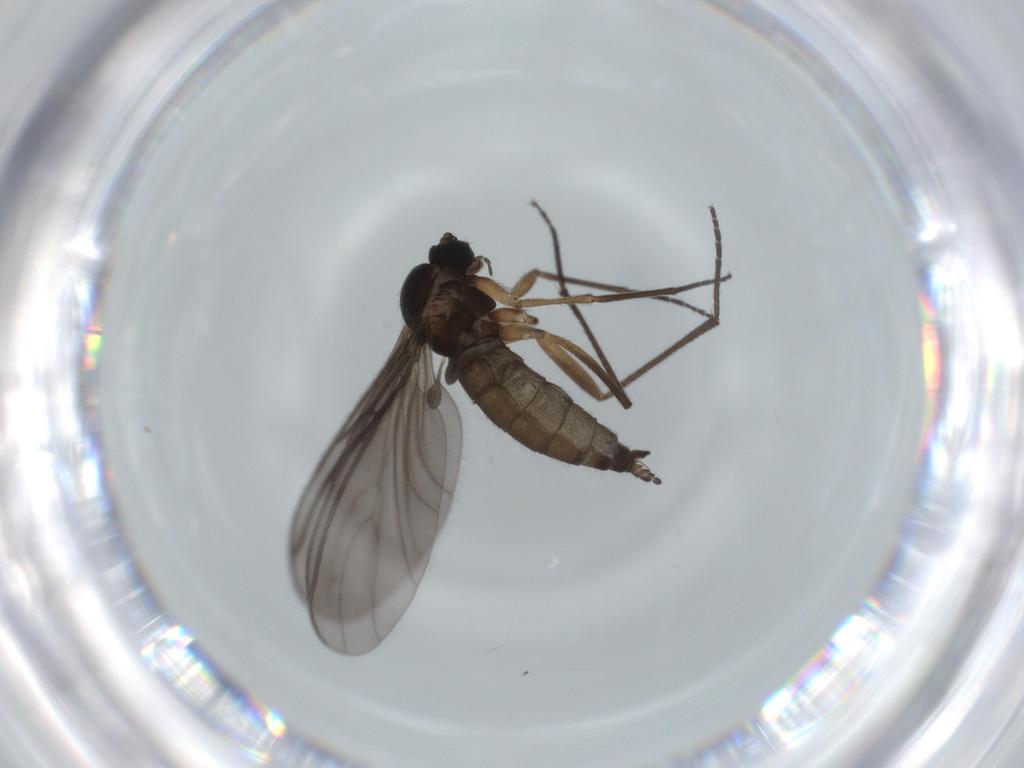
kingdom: Animalia
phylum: Arthropoda
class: Insecta
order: Diptera
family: Sciaridae
